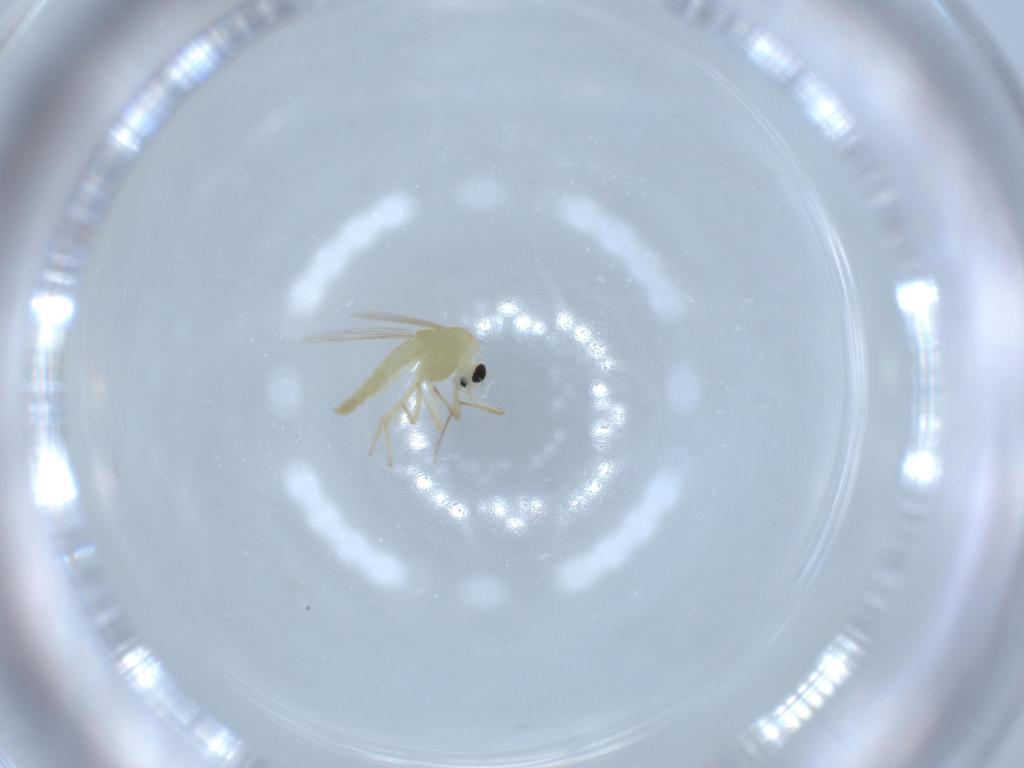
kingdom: Animalia
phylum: Arthropoda
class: Insecta
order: Diptera
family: Chironomidae
